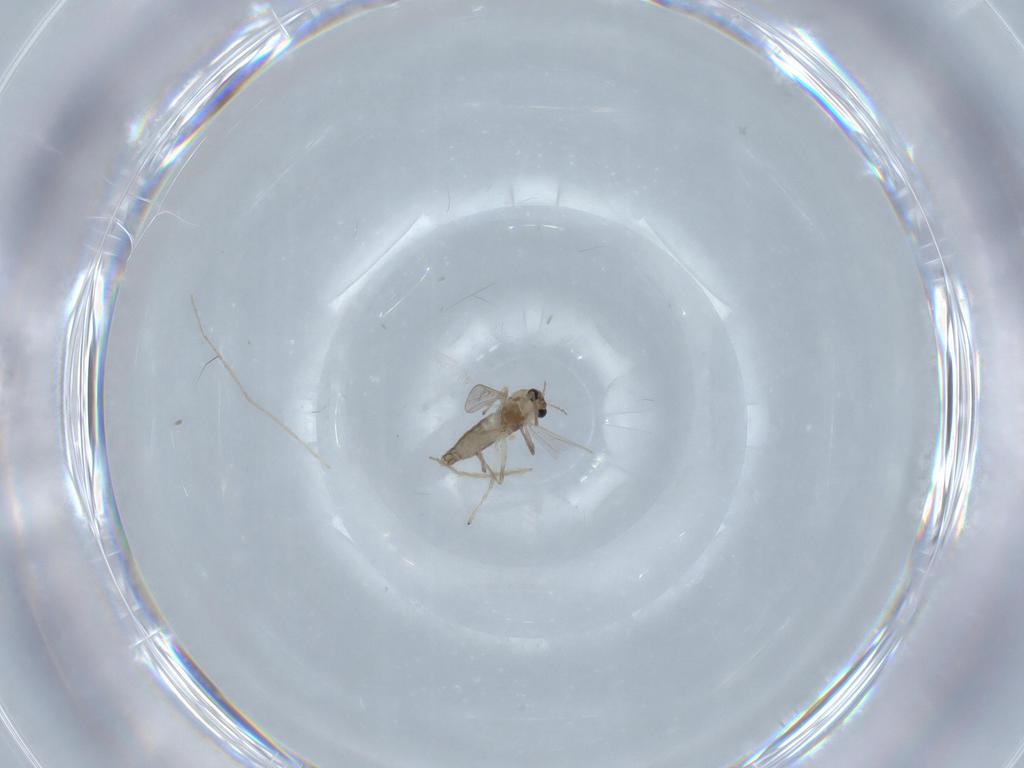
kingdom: Animalia
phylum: Arthropoda
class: Insecta
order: Diptera
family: Chironomidae
